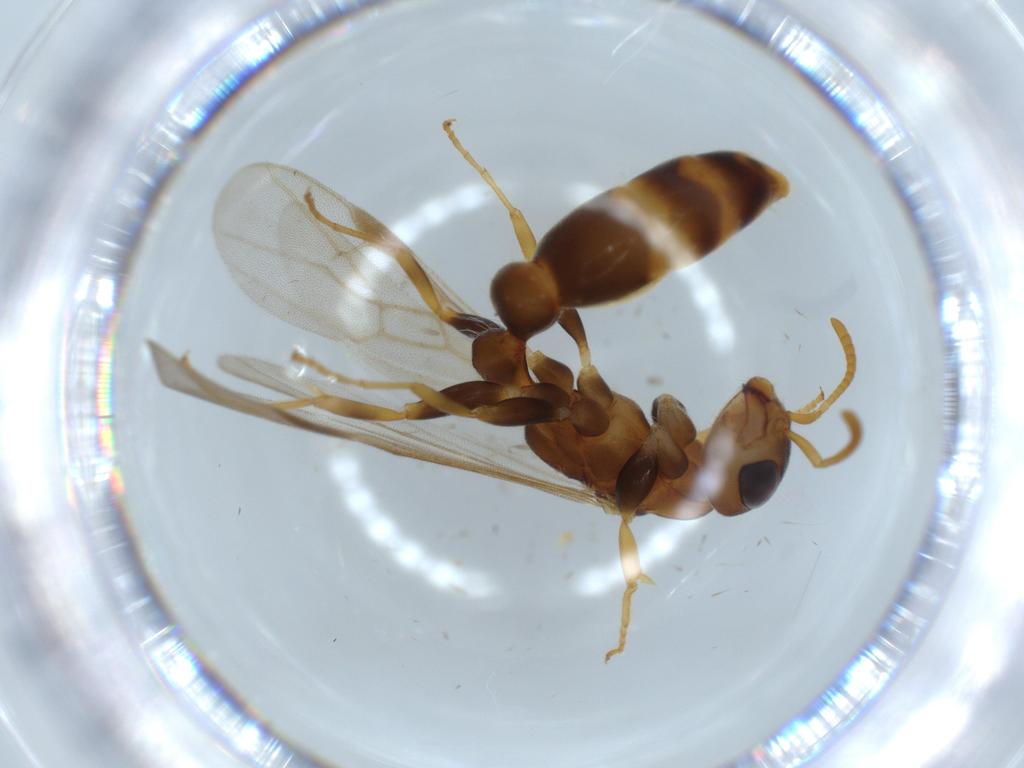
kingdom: Animalia
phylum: Arthropoda
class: Insecta
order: Hymenoptera
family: Formicidae
